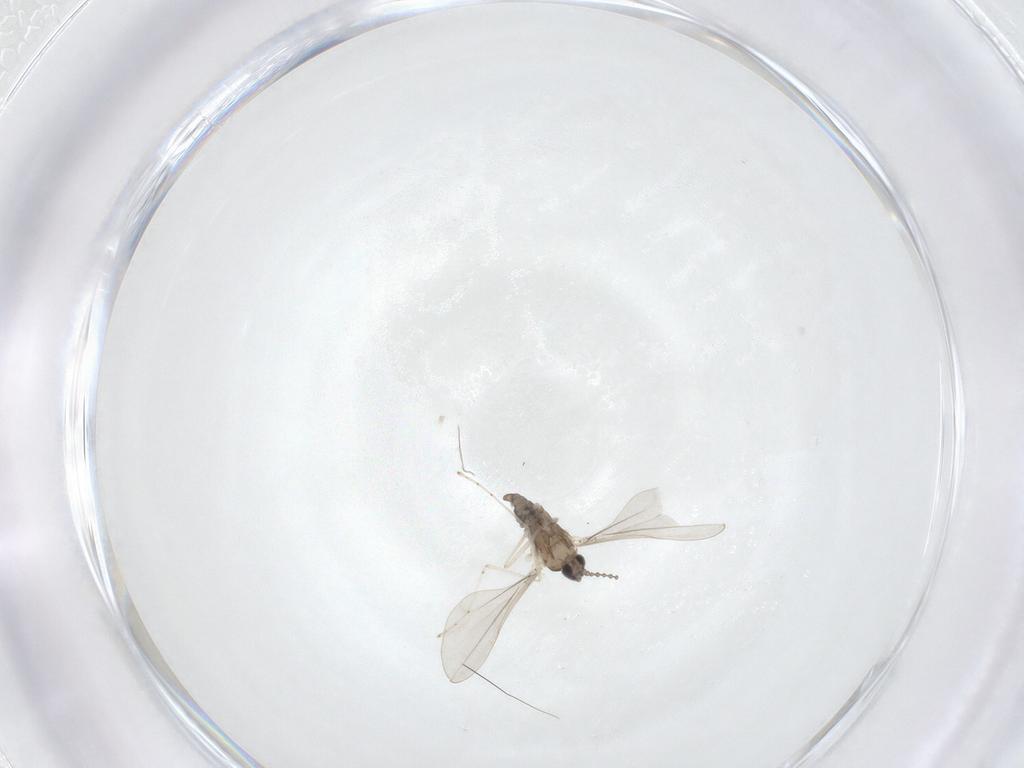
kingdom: Animalia
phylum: Arthropoda
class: Insecta
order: Diptera
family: Cecidomyiidae
